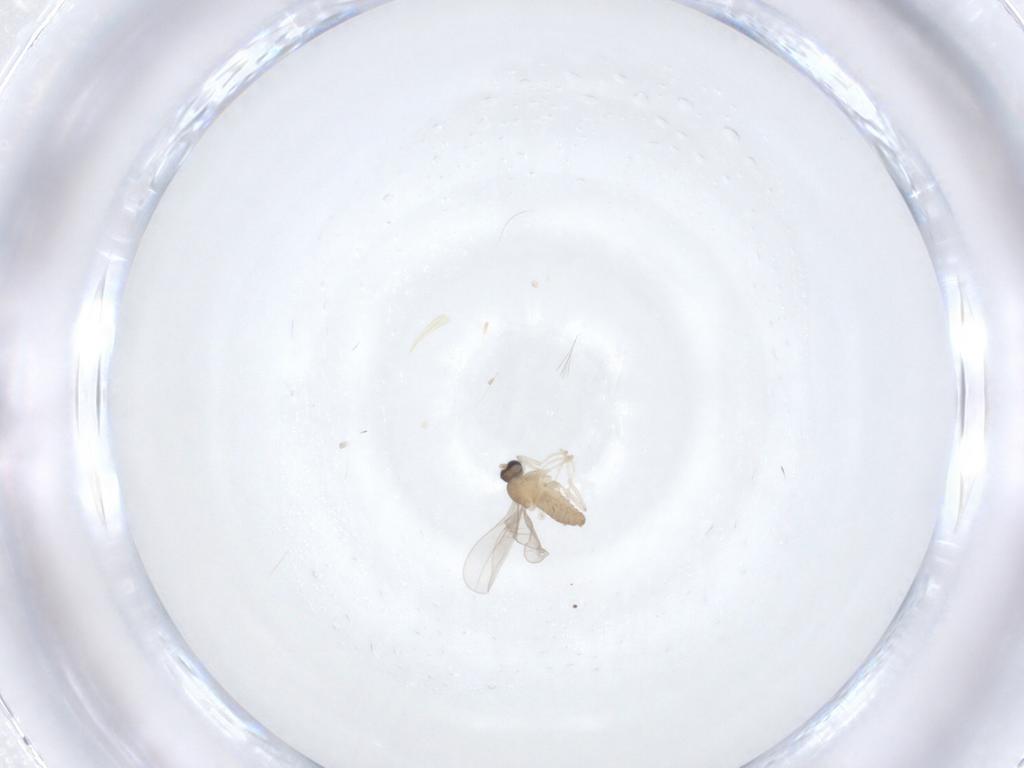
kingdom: Animalia
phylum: Arthropoda
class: Insecta
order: Diptera
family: Cecidomyiidae
